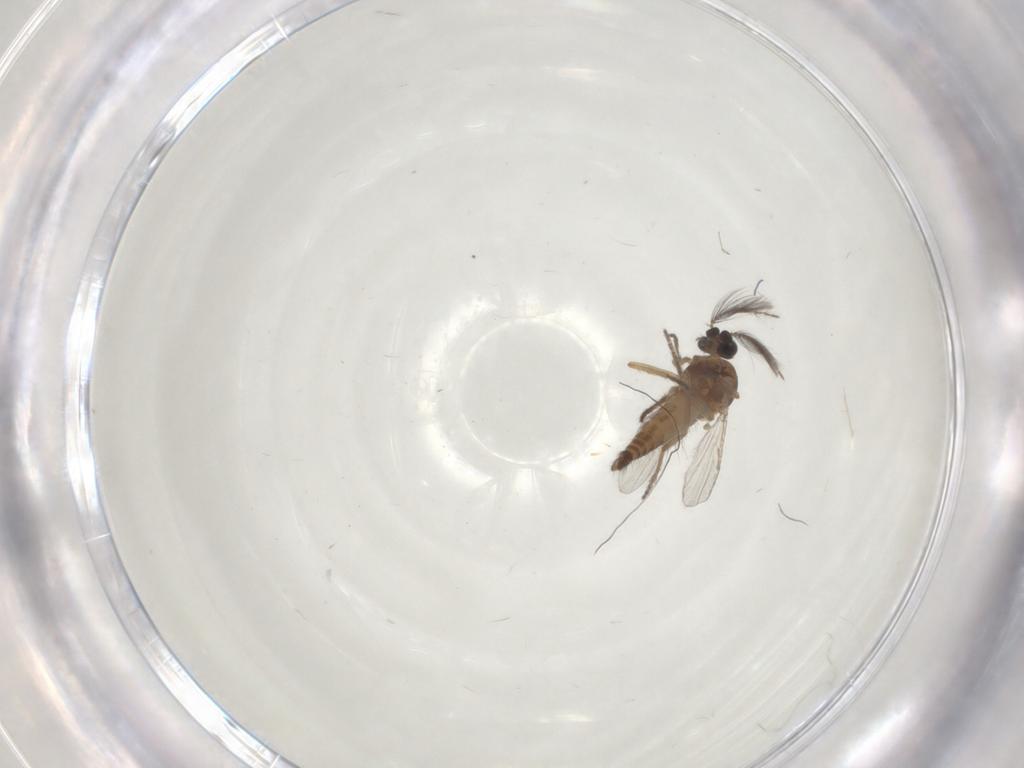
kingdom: Animalia
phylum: Arthropoda
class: Insecta
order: Diptera
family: Ceratopogonidae
